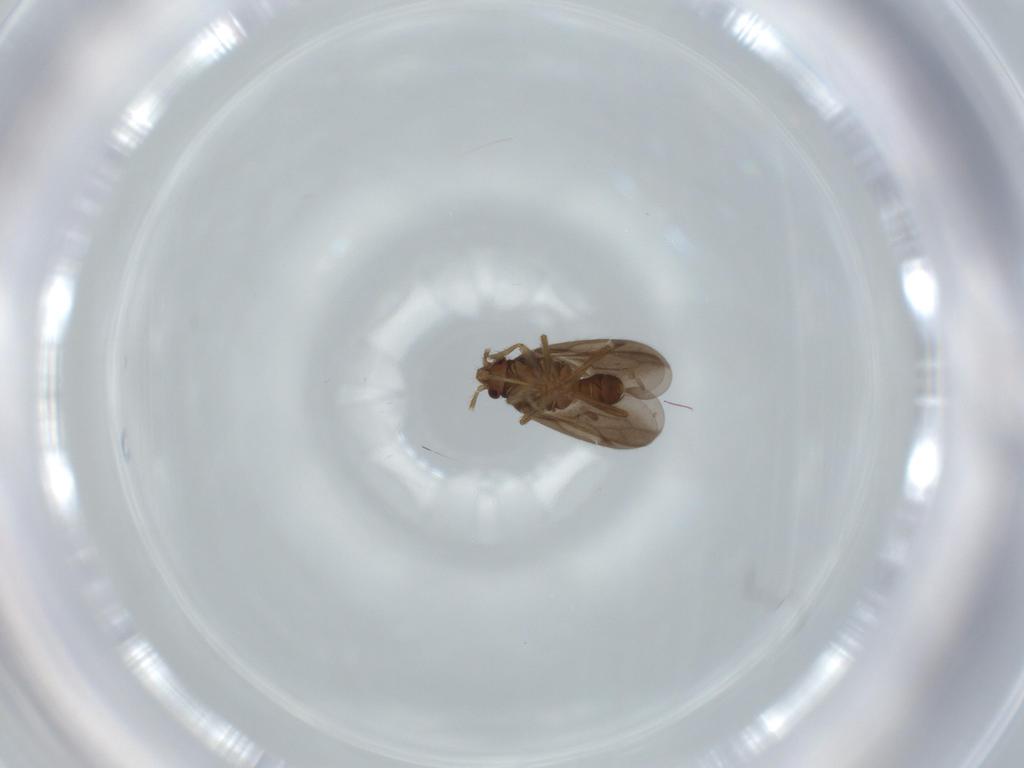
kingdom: Animalia
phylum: Arthropoda
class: Insecta
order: Hemiptera
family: Ceratocombidae
